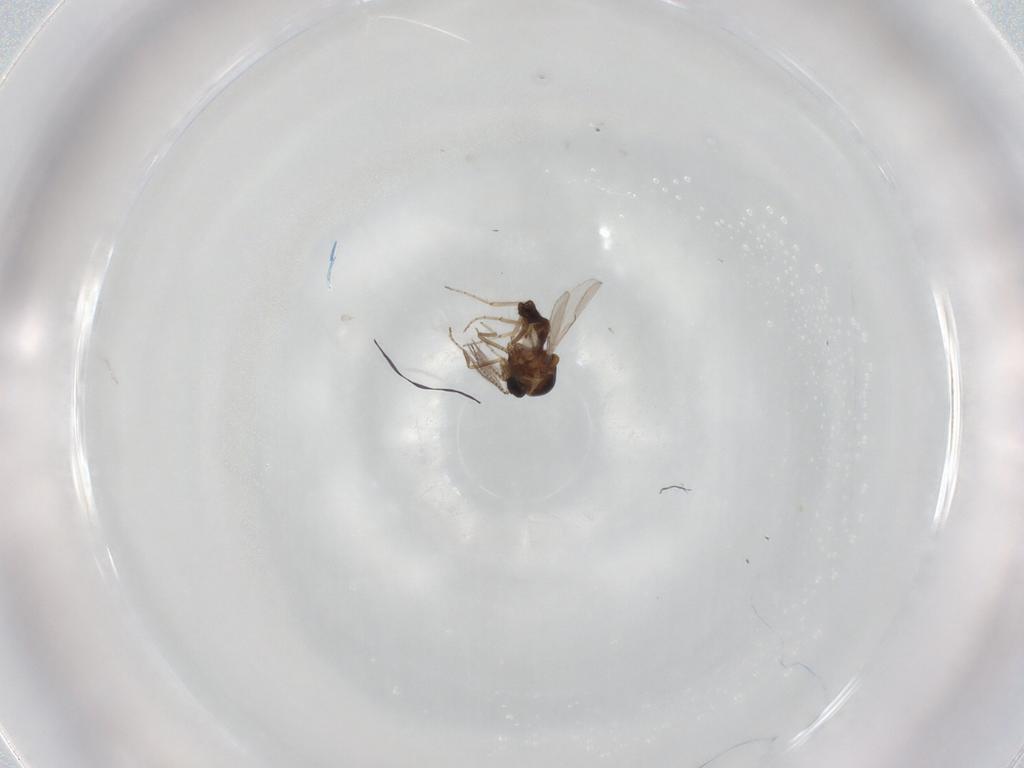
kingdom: Animalia
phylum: Arthropoda
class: Insecta
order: Diptera
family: Ceratopogonidae
